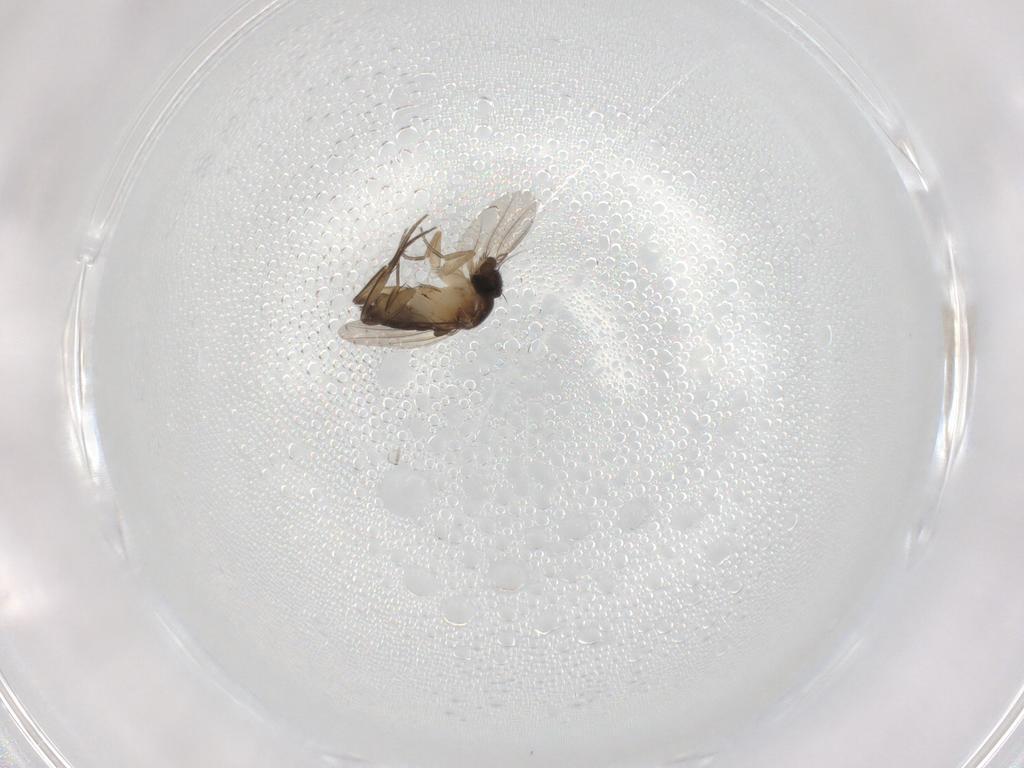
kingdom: Animalia
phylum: Arthropoda
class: Insecta
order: Diptera
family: Phoridae
